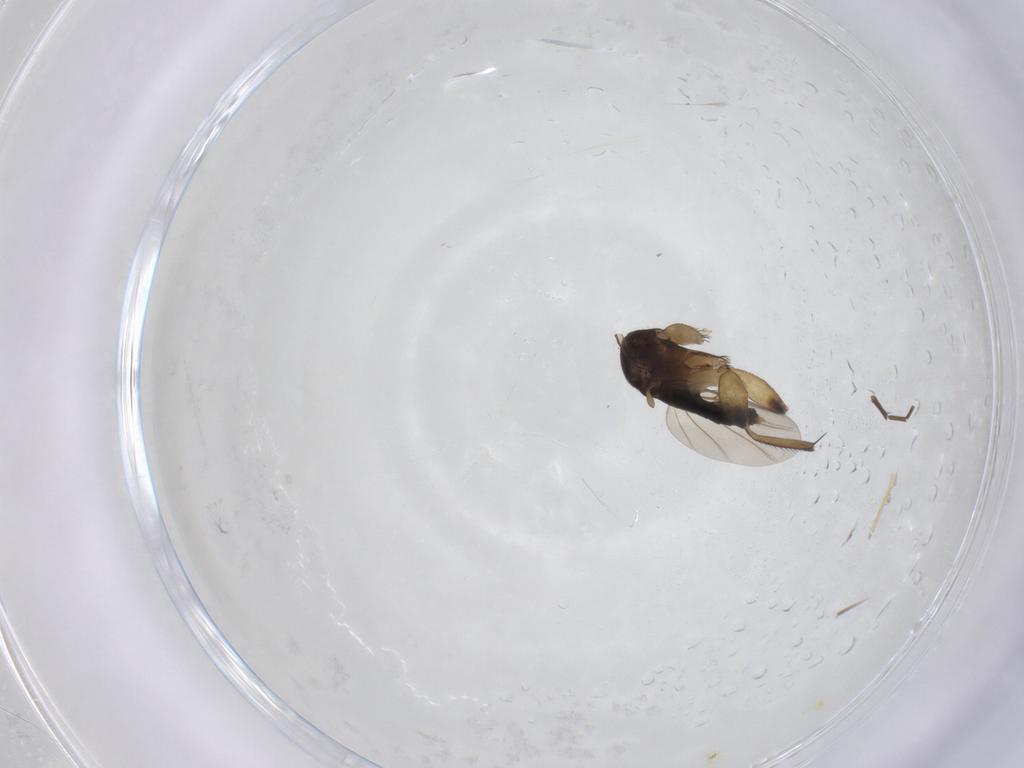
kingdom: Animalia
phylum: Arthropoda
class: Insecta
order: Diptera
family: Phoridae
